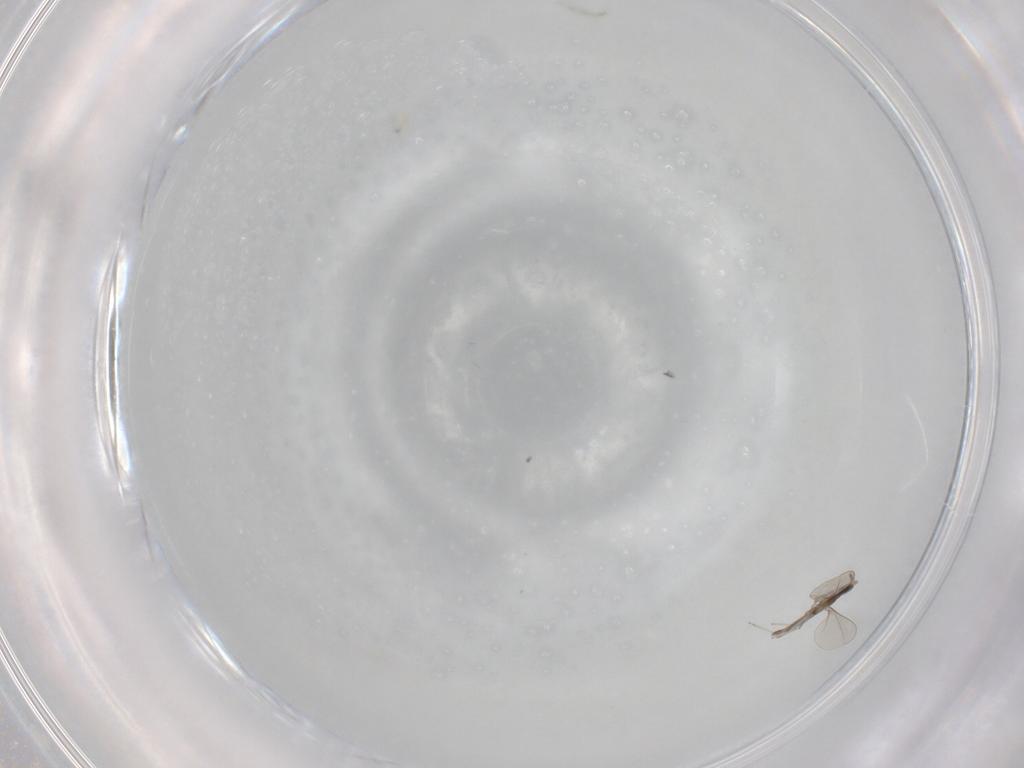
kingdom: Animalia
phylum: Arthropoda
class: Insecta
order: Diptera
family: Cecidomyiidae
